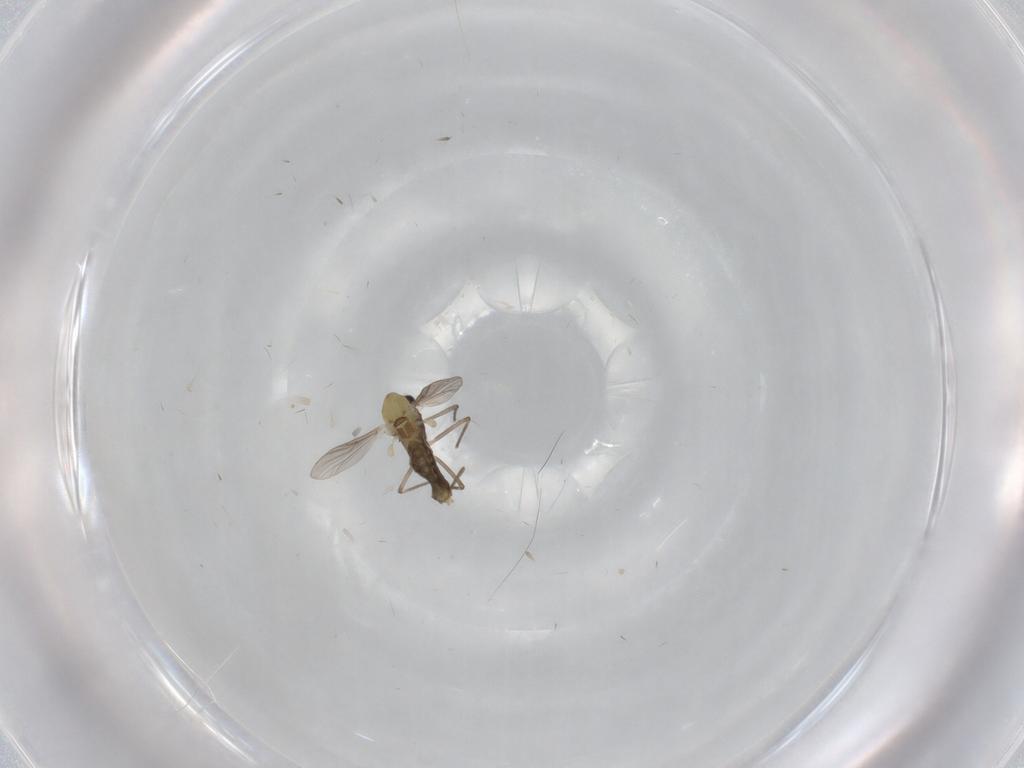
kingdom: Animalia
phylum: Arthropoda
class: Insecta
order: Diptera
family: Chironomidae
